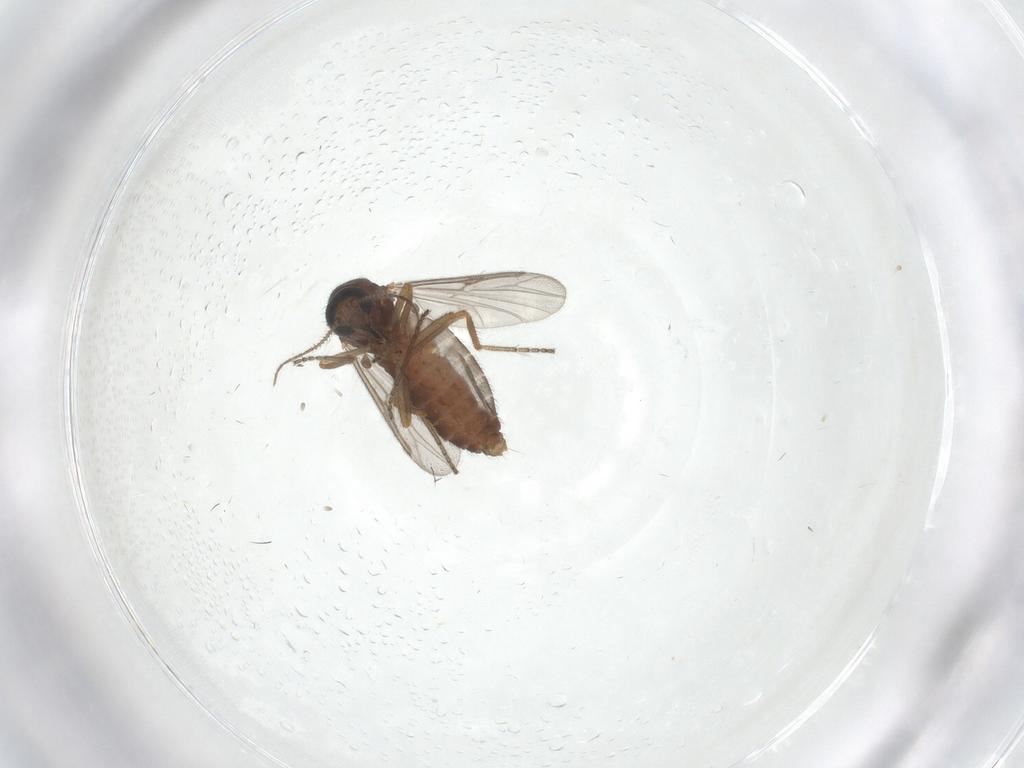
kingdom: Animalia
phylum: Arthropoda
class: Insecta
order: Diptera
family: Ceratopogonidae
